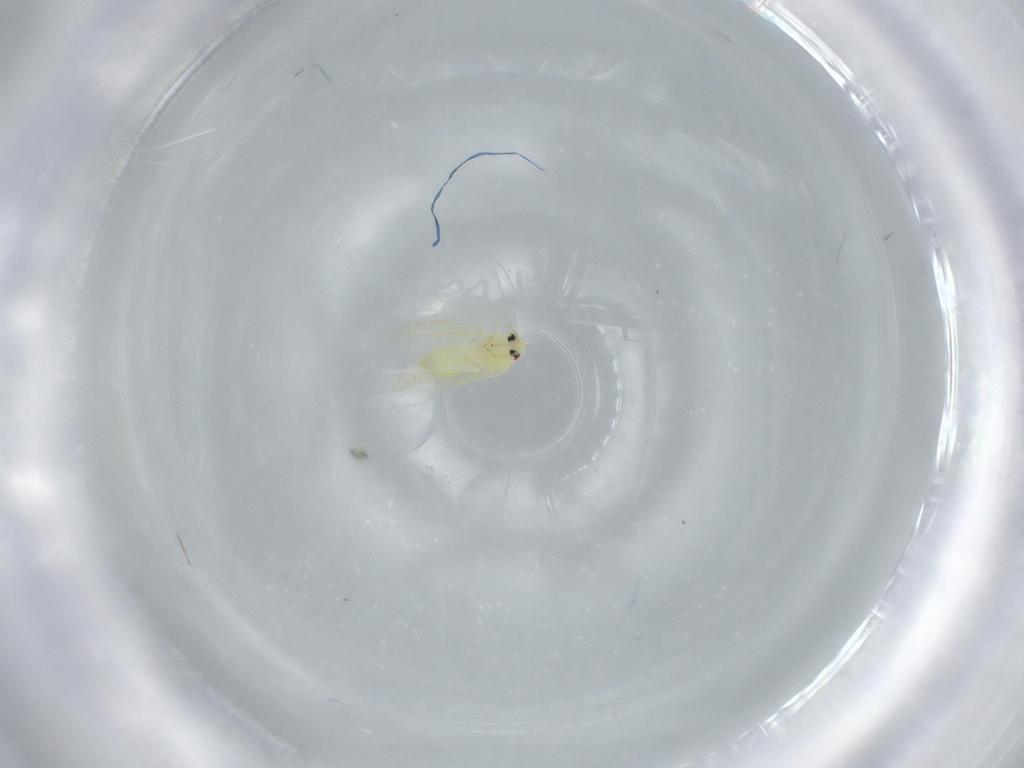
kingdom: Animalia
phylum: Arthropoda
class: Insecta
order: Hemiptera
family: Aleyrodidae
